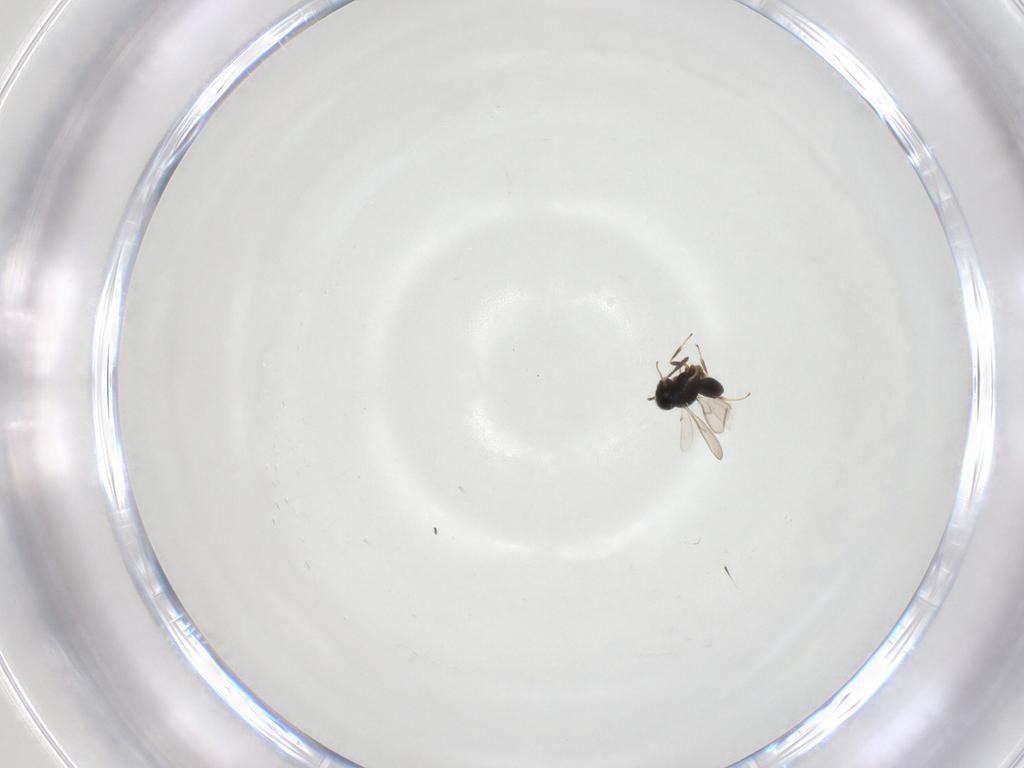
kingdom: Animalia
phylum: Arthropoda
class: Insecta
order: Hymenoptera
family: Scelionidae
